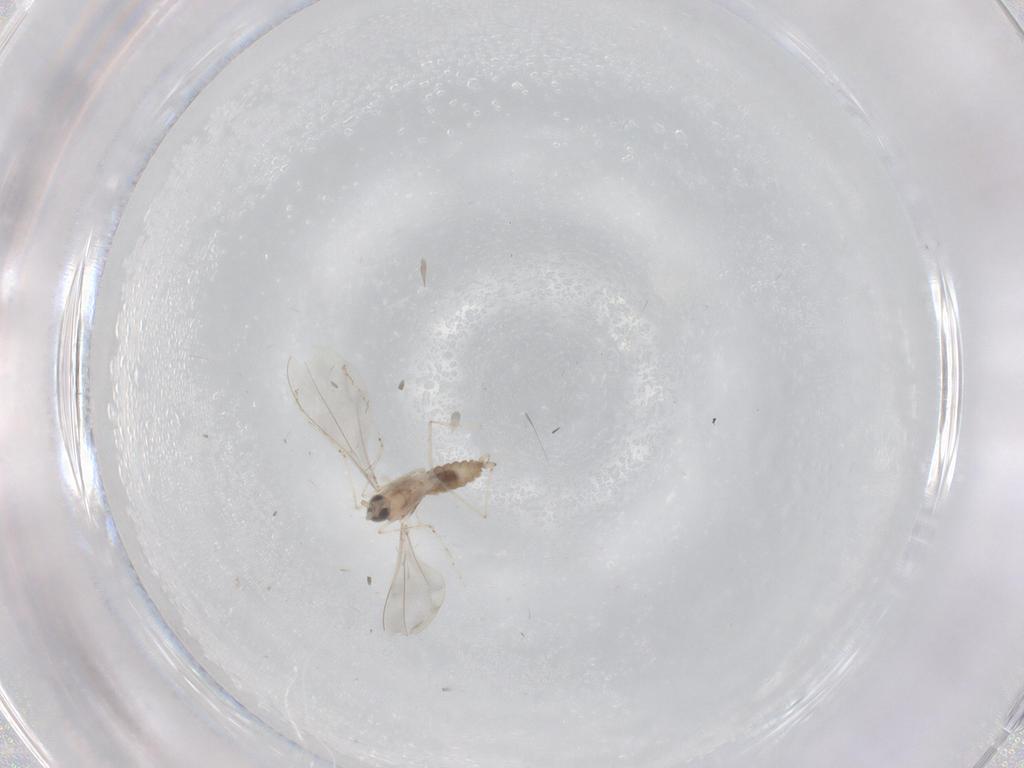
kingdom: Animalia
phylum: Arthropoda
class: Insecta
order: Diptera
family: Cecidomyiidae
